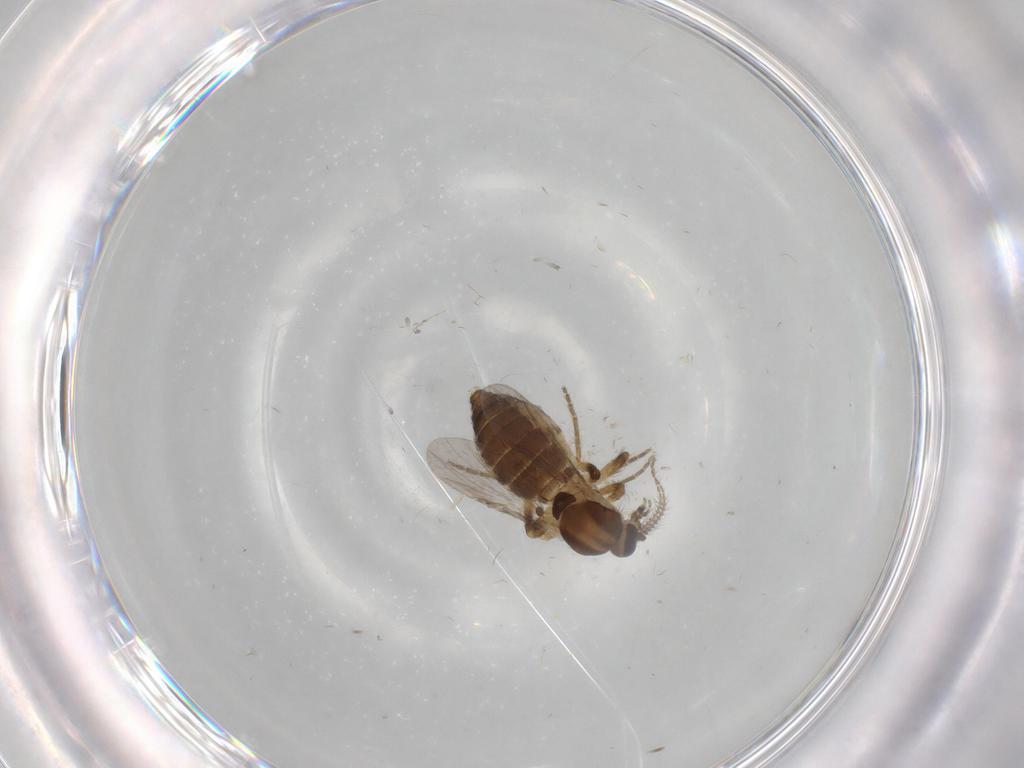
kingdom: Animalia
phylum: Arthropoda
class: Insecta
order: Diptera
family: Ceratopogonidae
